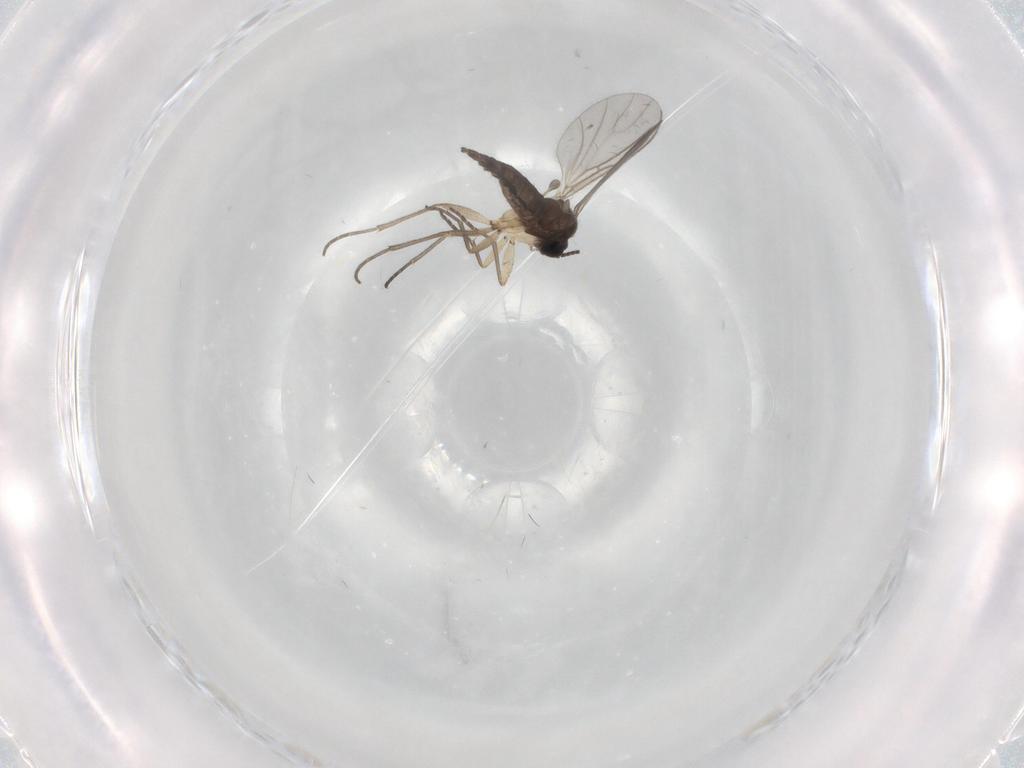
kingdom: Animalia
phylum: Arthropoda
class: Insecta
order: Diptera
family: Sciaridae
